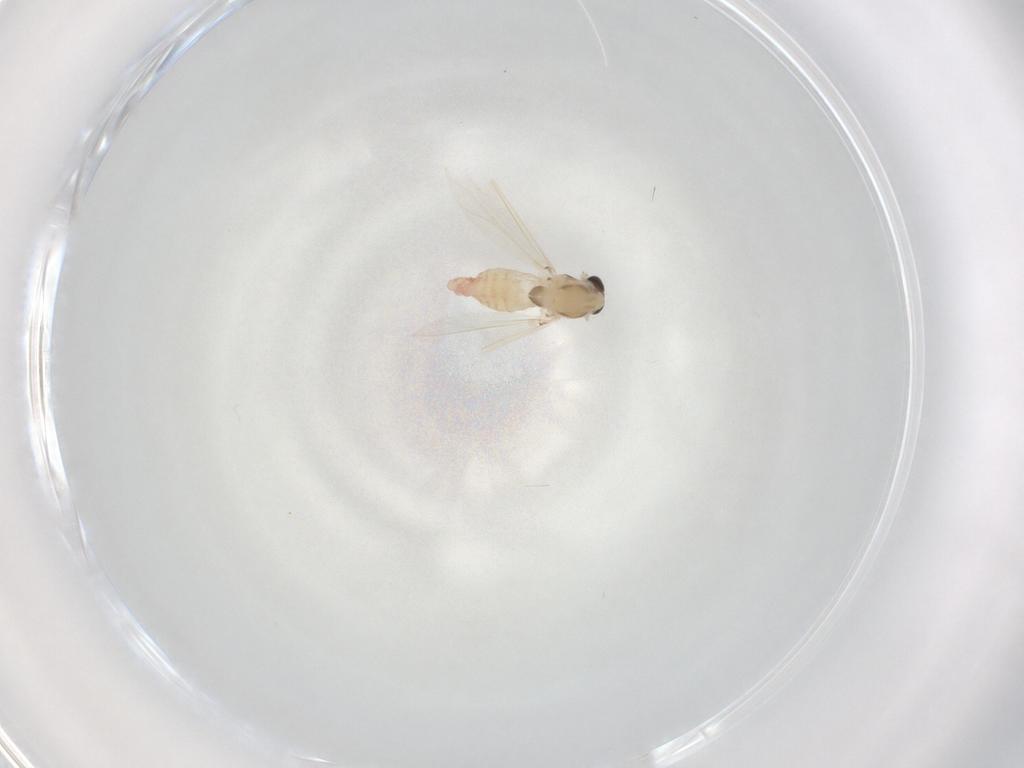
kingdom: Animalia
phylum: Arthropoda
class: Insecta
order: Diptera
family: Chironomidae
